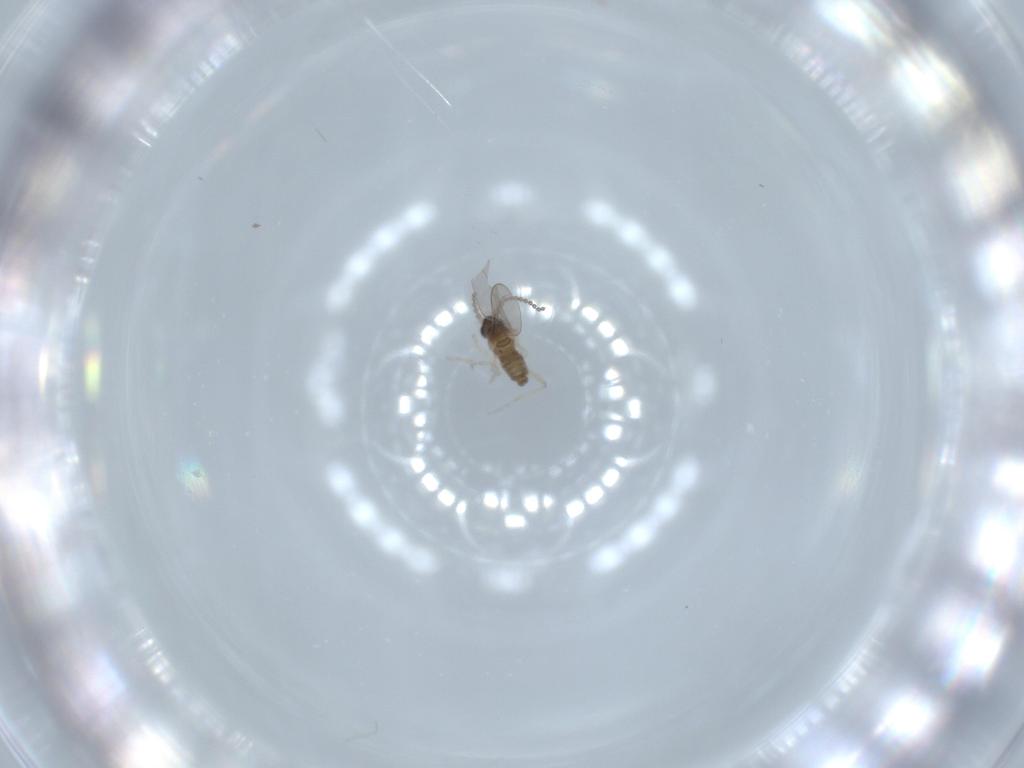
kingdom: Animalia
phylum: Arthropoda
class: Insecta
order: Diptera
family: Cecidomyiidae
